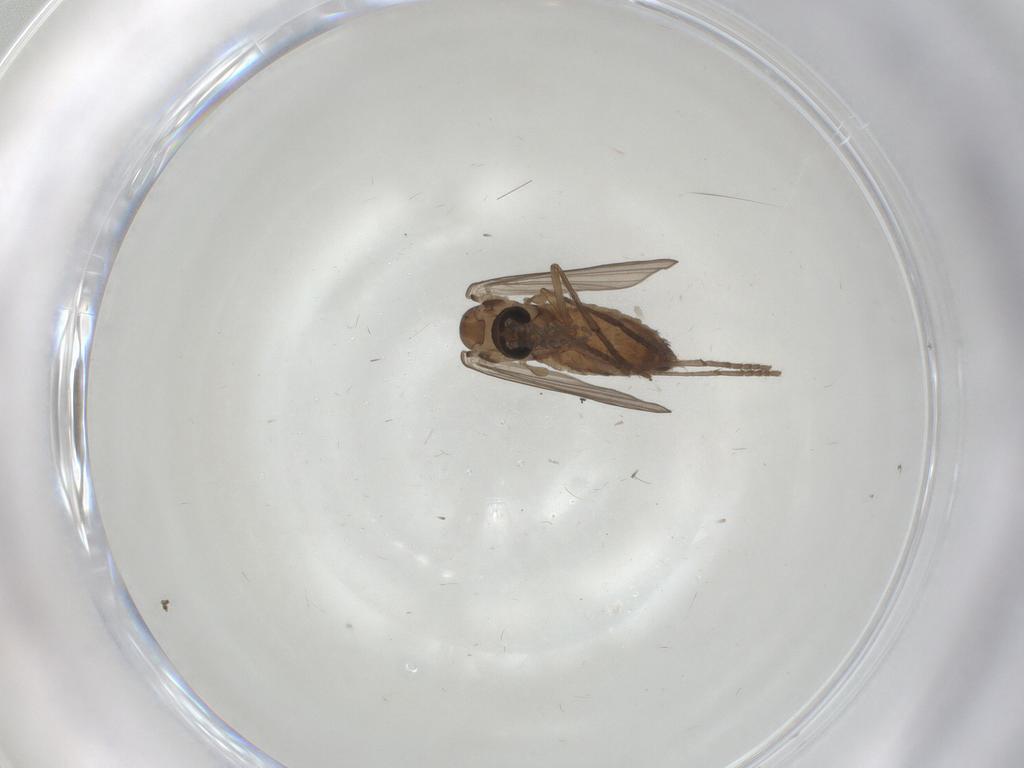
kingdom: Animalia
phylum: Arthropoda
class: Insecta
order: Diptera
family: Psychodidae
